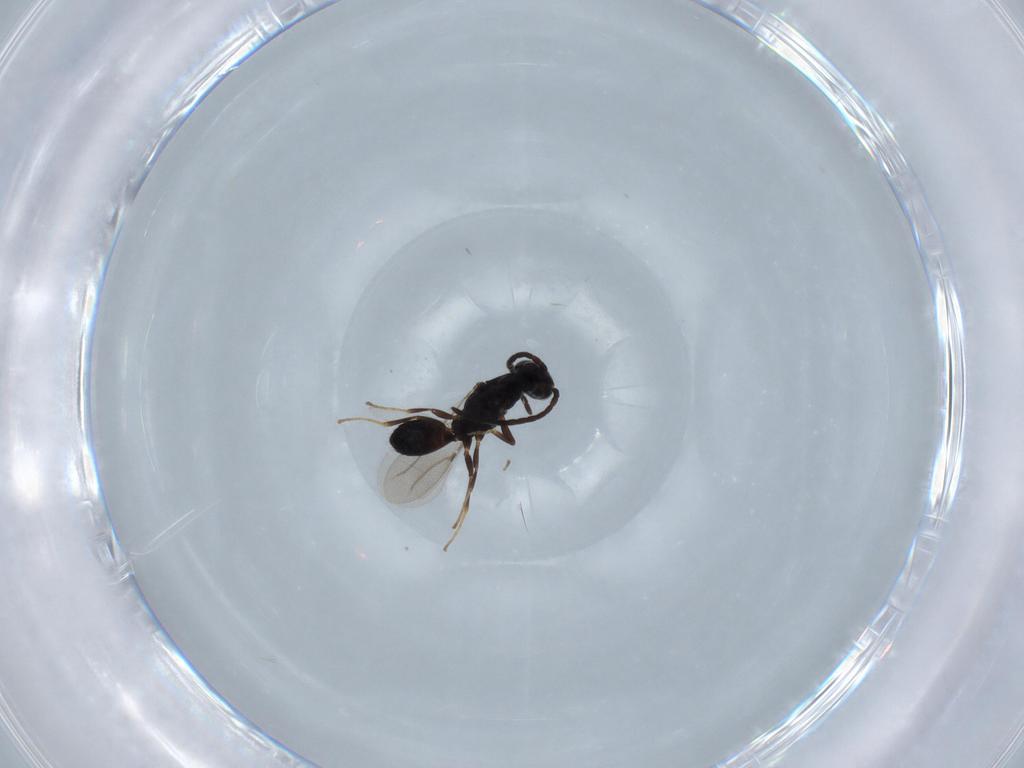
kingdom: Animalia
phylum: Arthropoda
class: Insecta
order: Hymenoptera
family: Bethylidae
